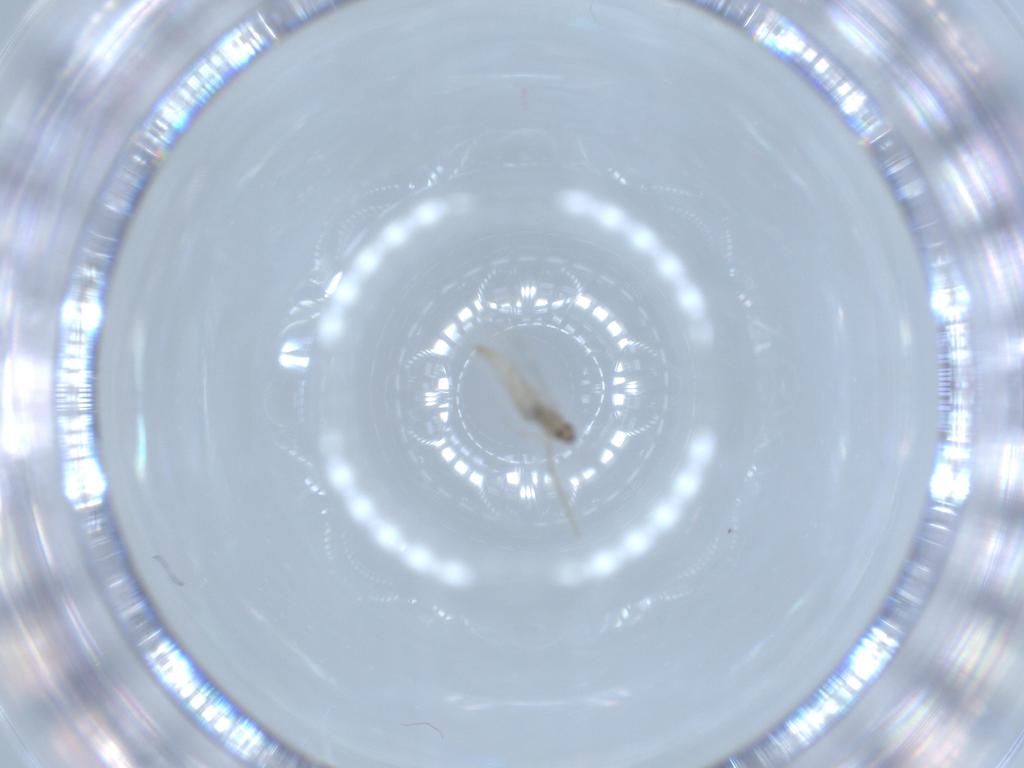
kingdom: Animalia
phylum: Arthropoda
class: Insecta
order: Diptera
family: Cecidomyiidae
